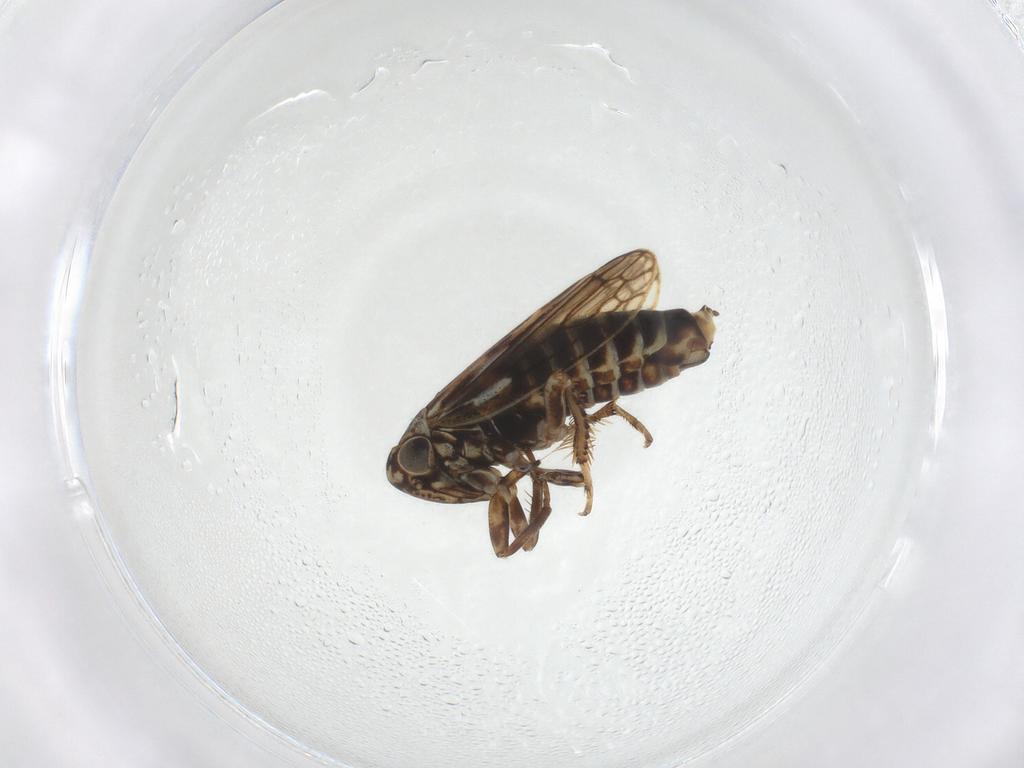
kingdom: Animalia
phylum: Arthropoda
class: Insecta
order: Hemiptera
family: Cicadellidae
